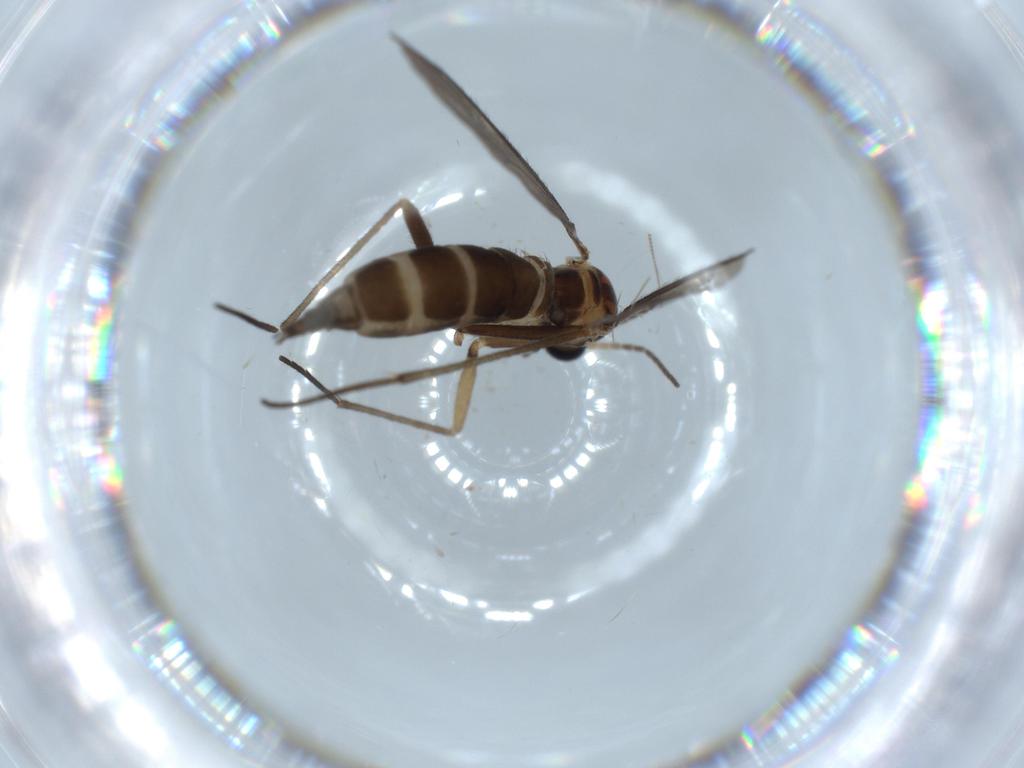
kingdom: Animalia
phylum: Arthropoda
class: Insecta
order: Diptera
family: Sciaridae
